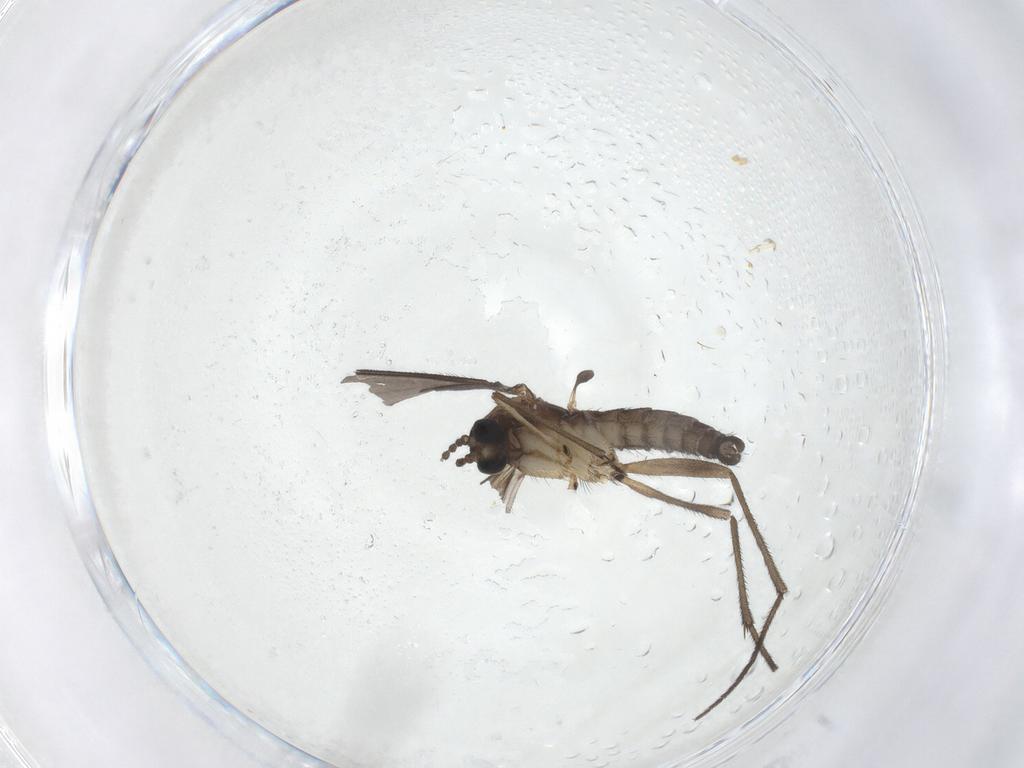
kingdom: Animalia
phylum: Arthropoda
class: Insecta
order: Diptera
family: Sciaridae
